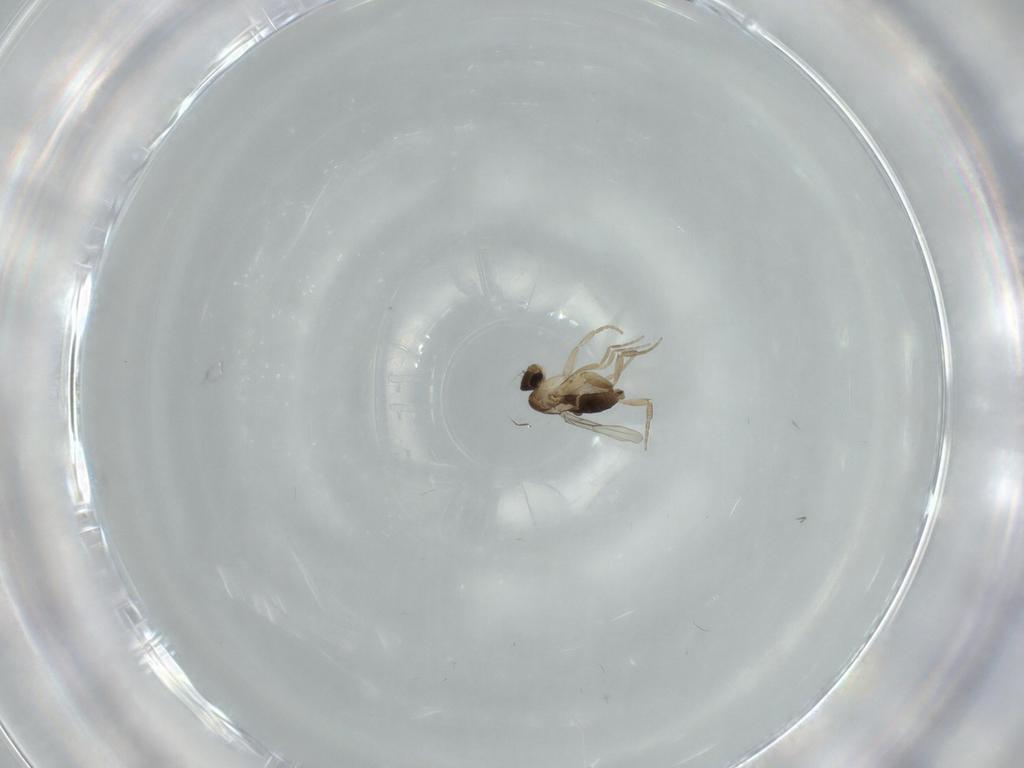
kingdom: Animalia
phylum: Arthropoda
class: Insecta
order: Diptera
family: Phoridae
